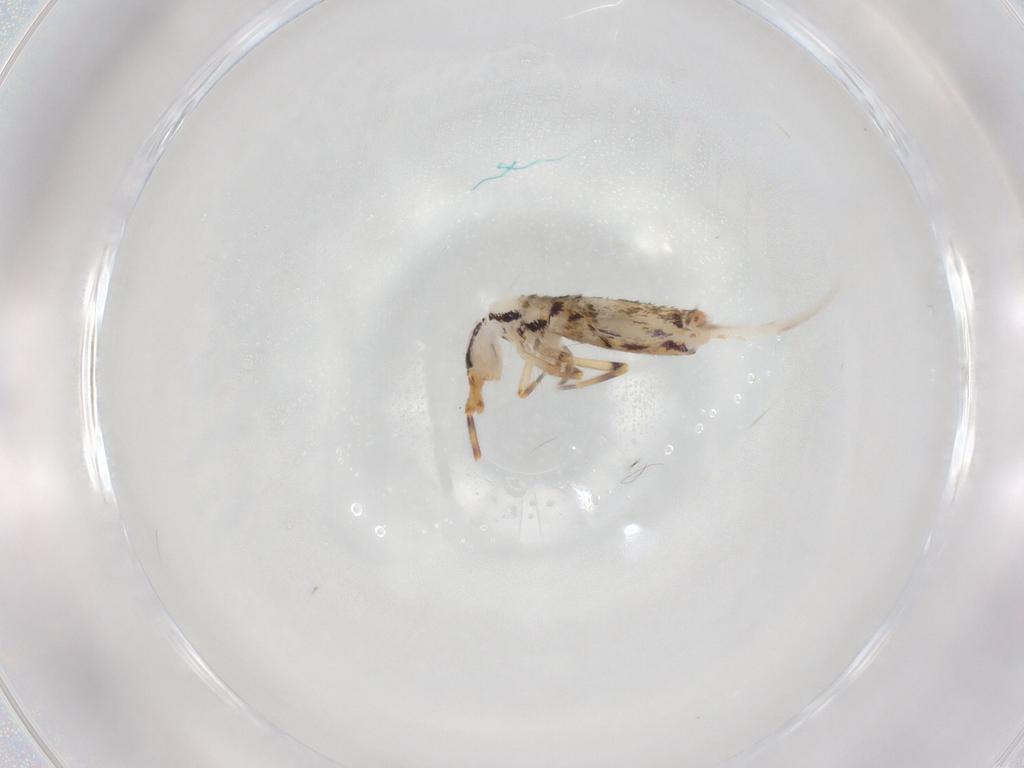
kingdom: Animalia
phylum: Arthropoda
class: Collembola
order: Entomobryomorpha
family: Entomobryidae
